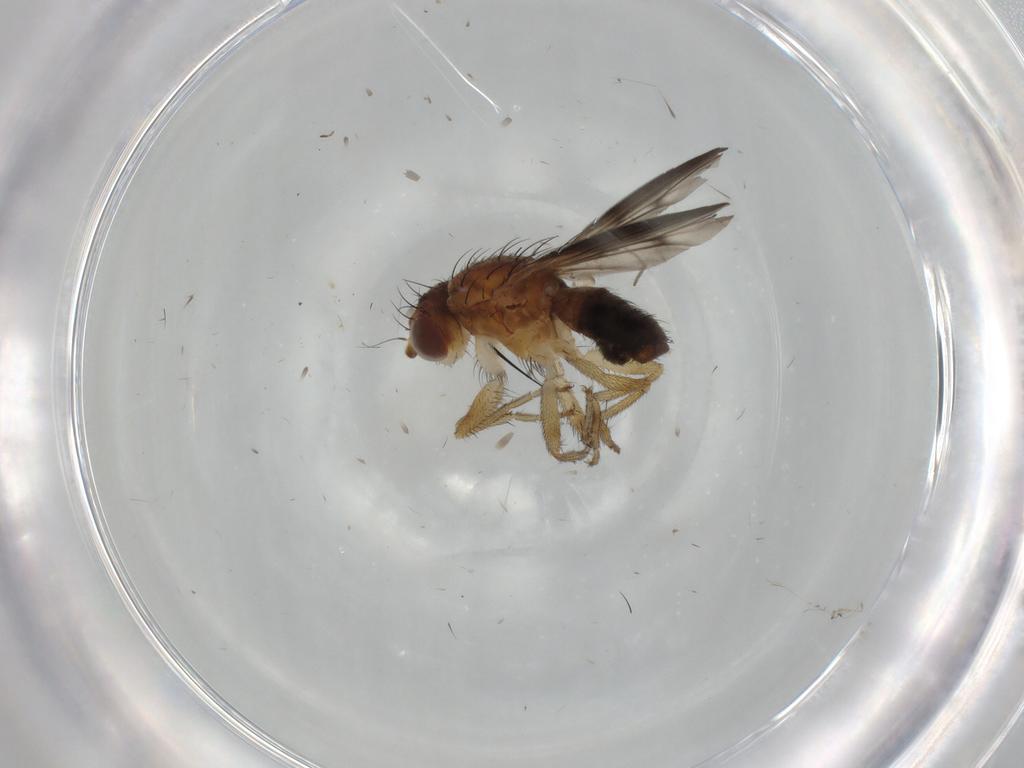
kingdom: Animalia
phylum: Arthropoda
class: Insecta
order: Diptera
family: Heleomyzidae
